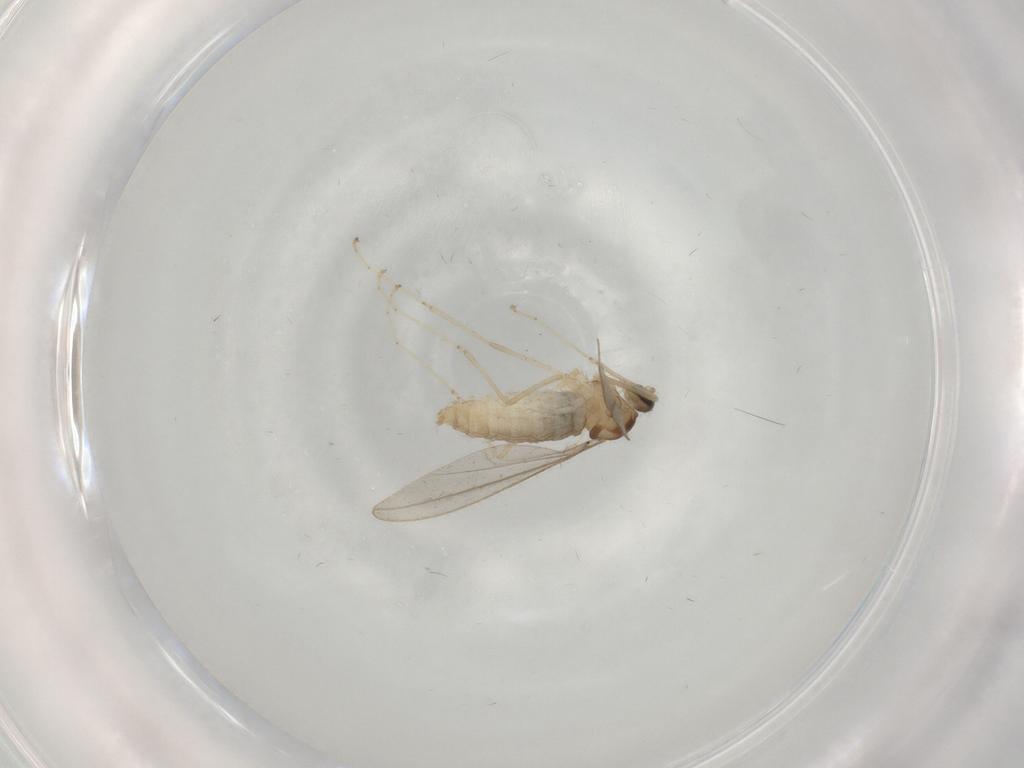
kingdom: Animalia
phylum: Arthropoda
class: Insecta
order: Diptera
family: Cecidomyiidae
